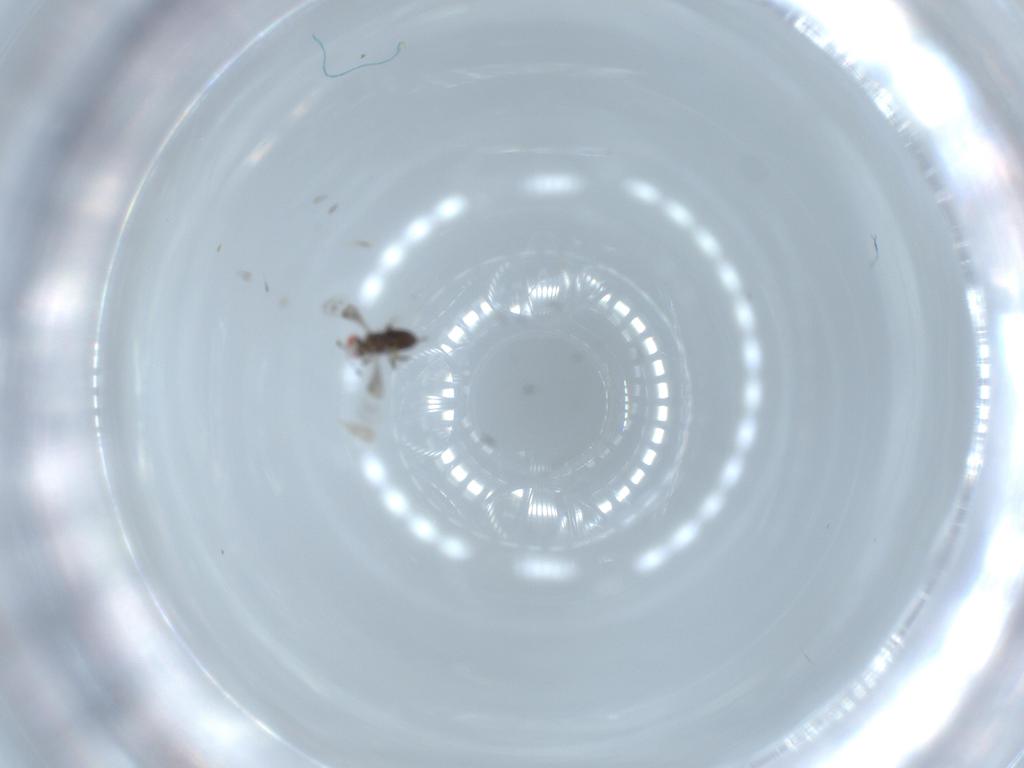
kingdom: Animalia
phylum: Arthropoda
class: Insecta
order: Hymenoptera
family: Azotidae
